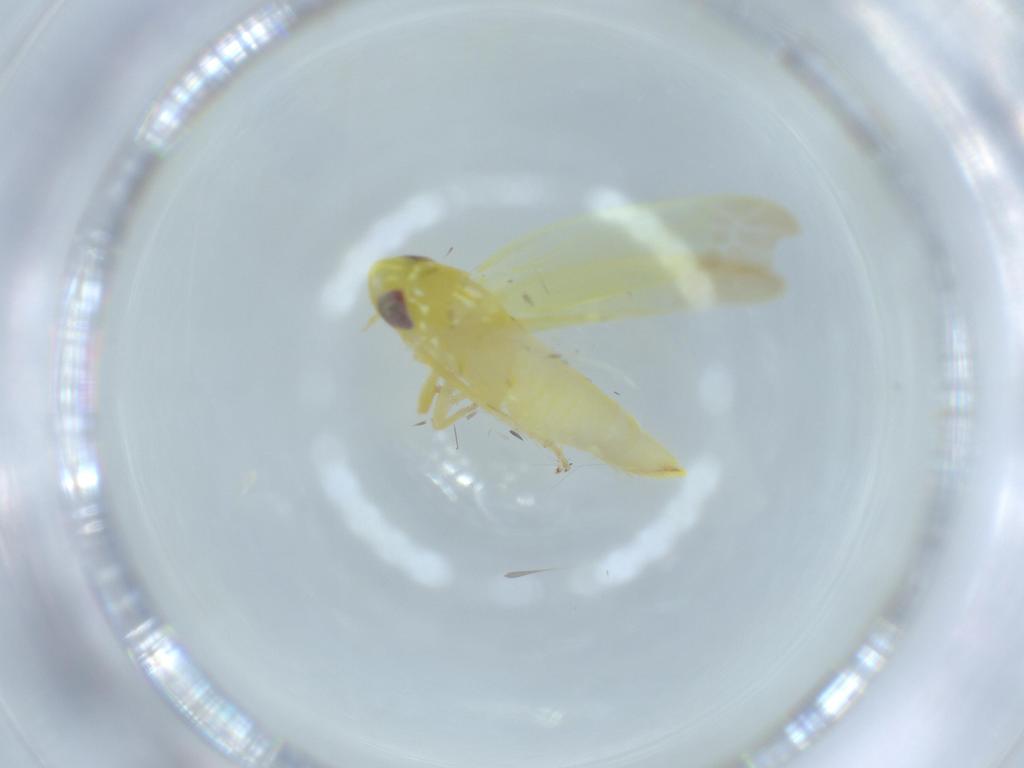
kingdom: Animalia
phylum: Arthropoda
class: Insecta
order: Hemiptera
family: Cicadellidae
